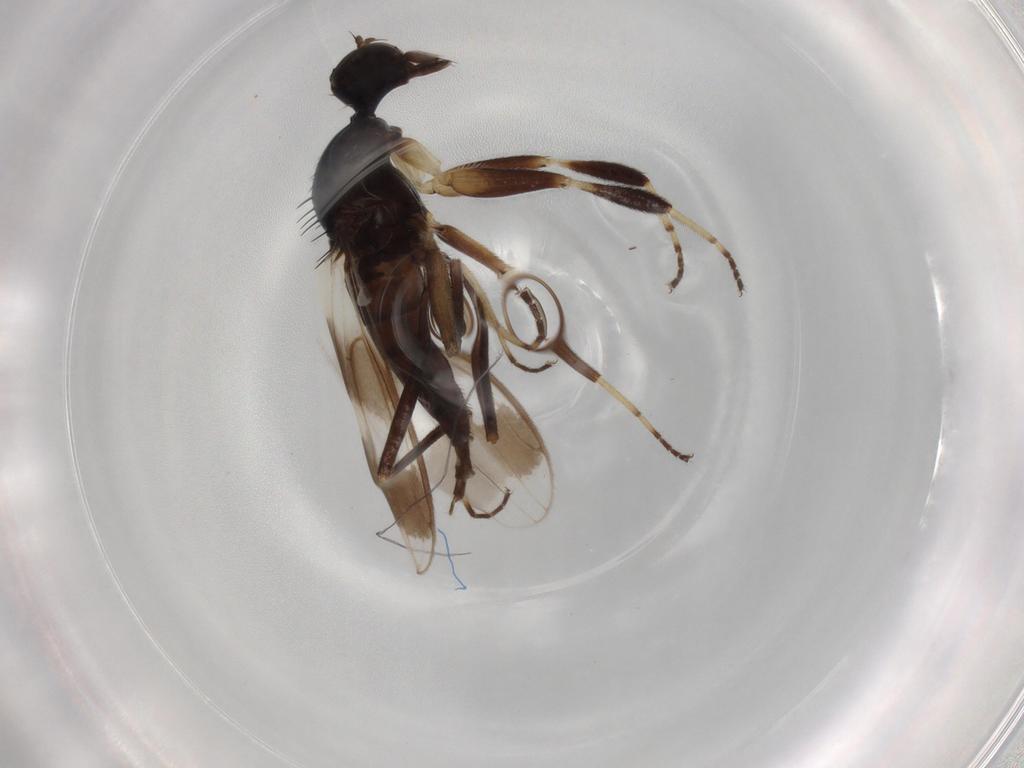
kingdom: Animalia
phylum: Arthropoda
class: Insecta
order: Diptera
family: Hybotidae
